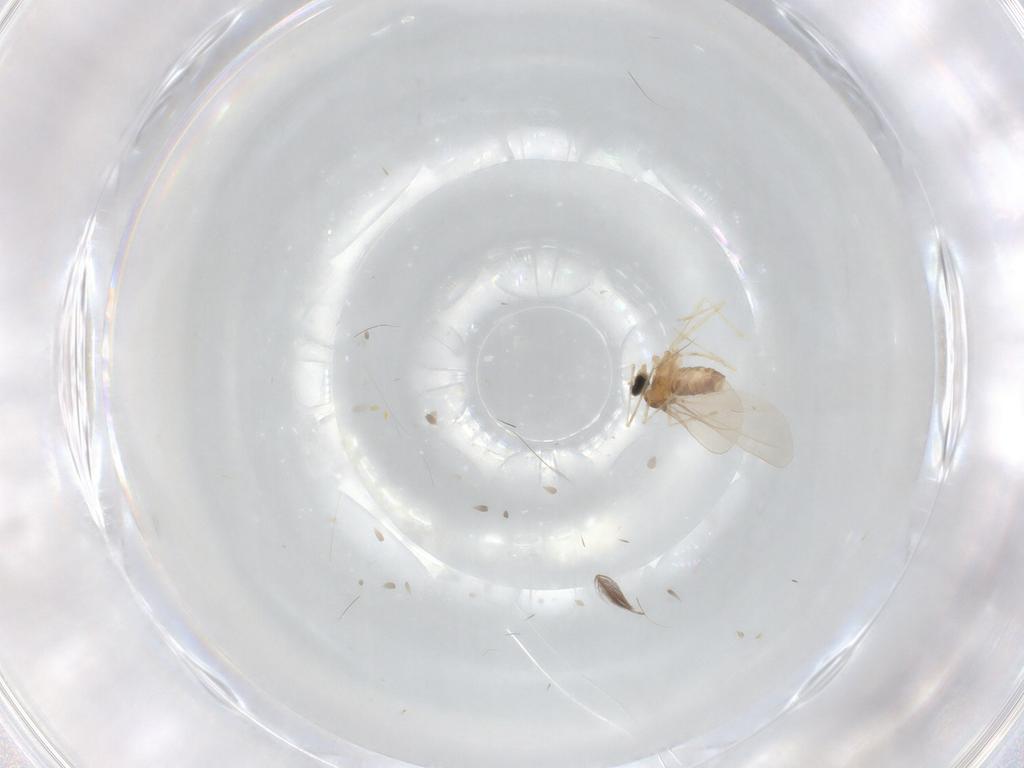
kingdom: Animalia
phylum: Arthropoda
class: Insecta
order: Diptera
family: Ceratopogonidae
